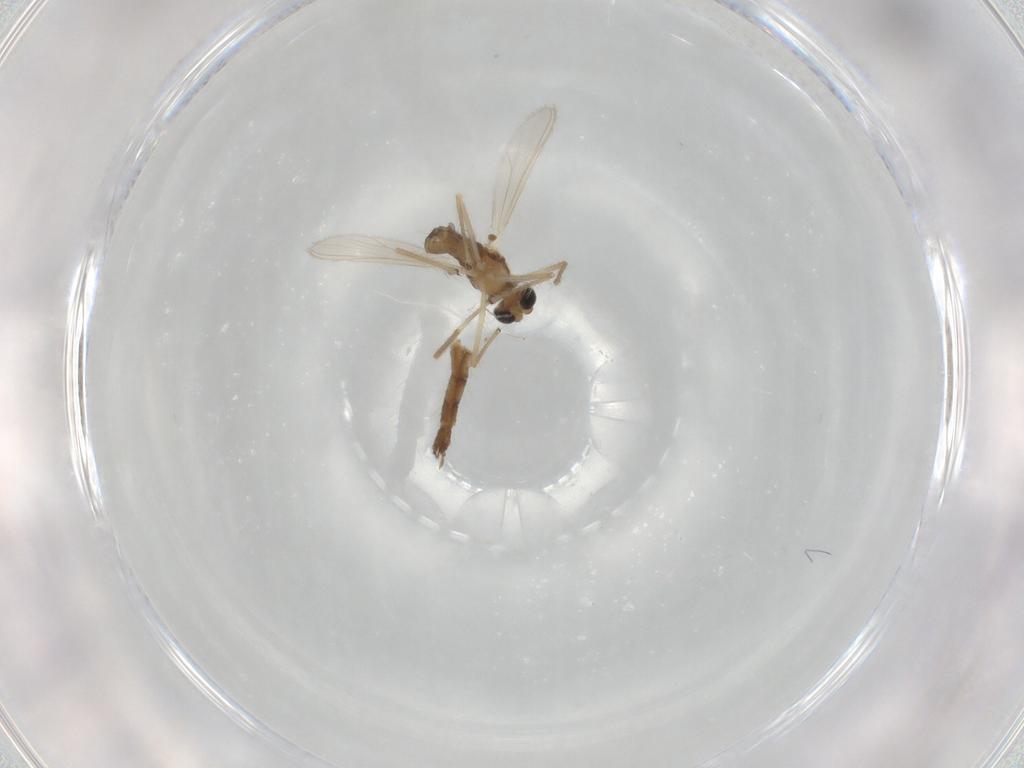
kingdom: Animalia
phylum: Arthropoda
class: Insecta
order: Diptera
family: Chironomidae
